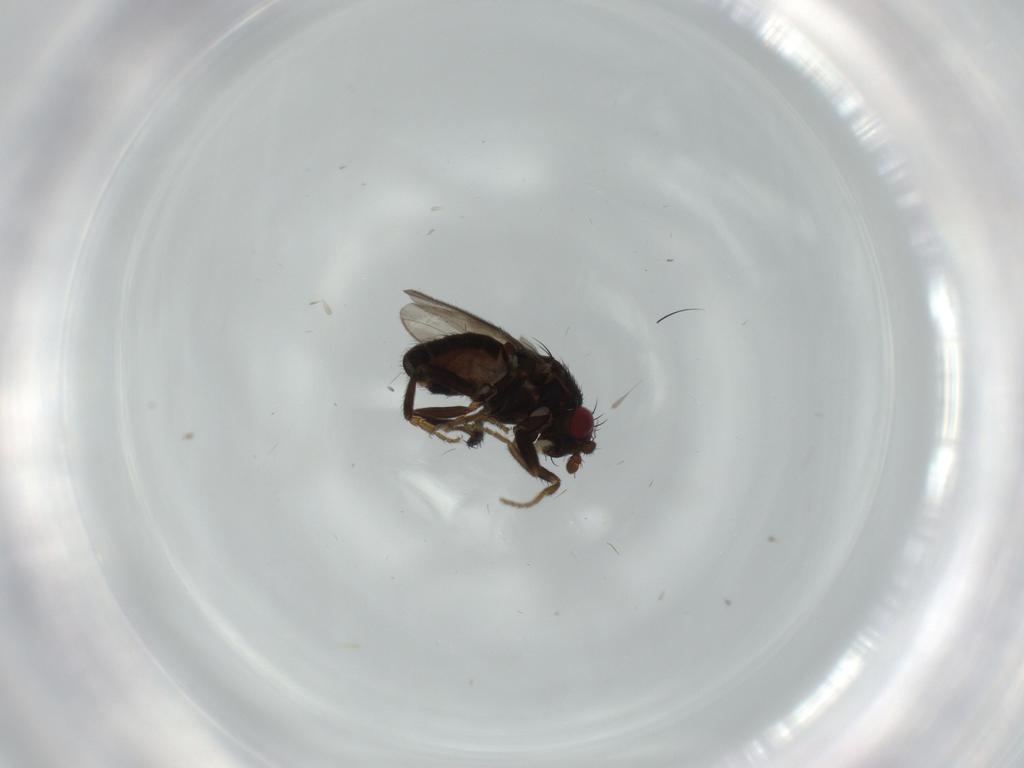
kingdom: Animalia
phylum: Arthropoda
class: Insecta
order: Diptera
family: Sphaeroceridae
